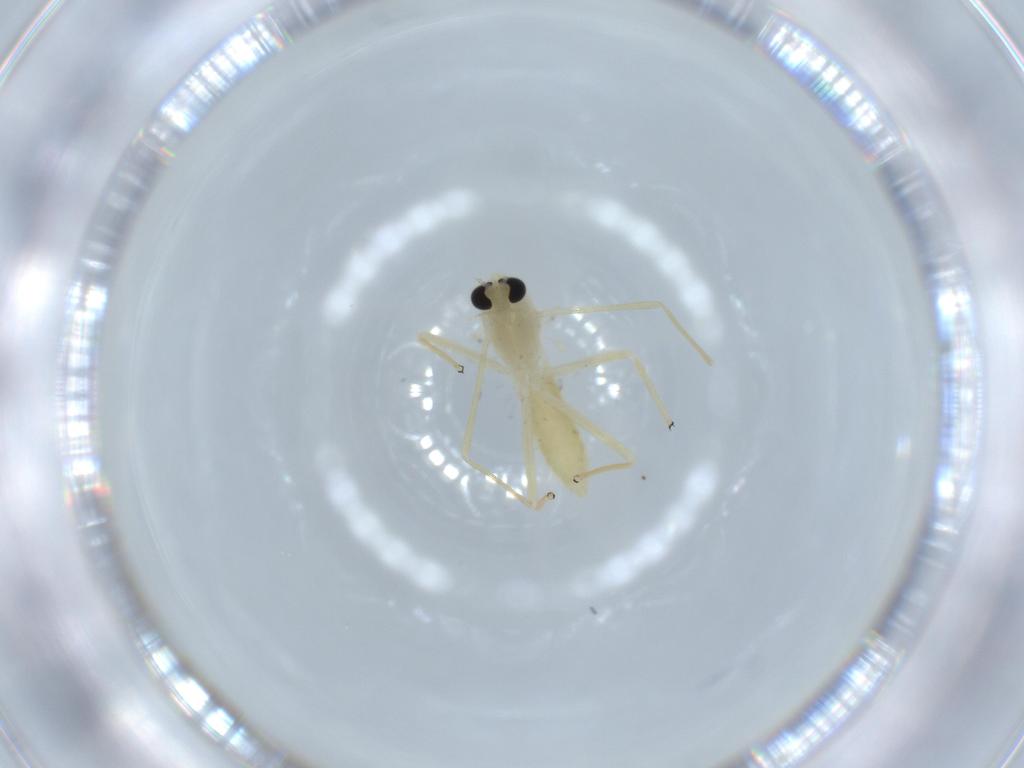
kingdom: Animalia
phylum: Arthropoda
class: Insecta
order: Diptera
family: Chironomidae
